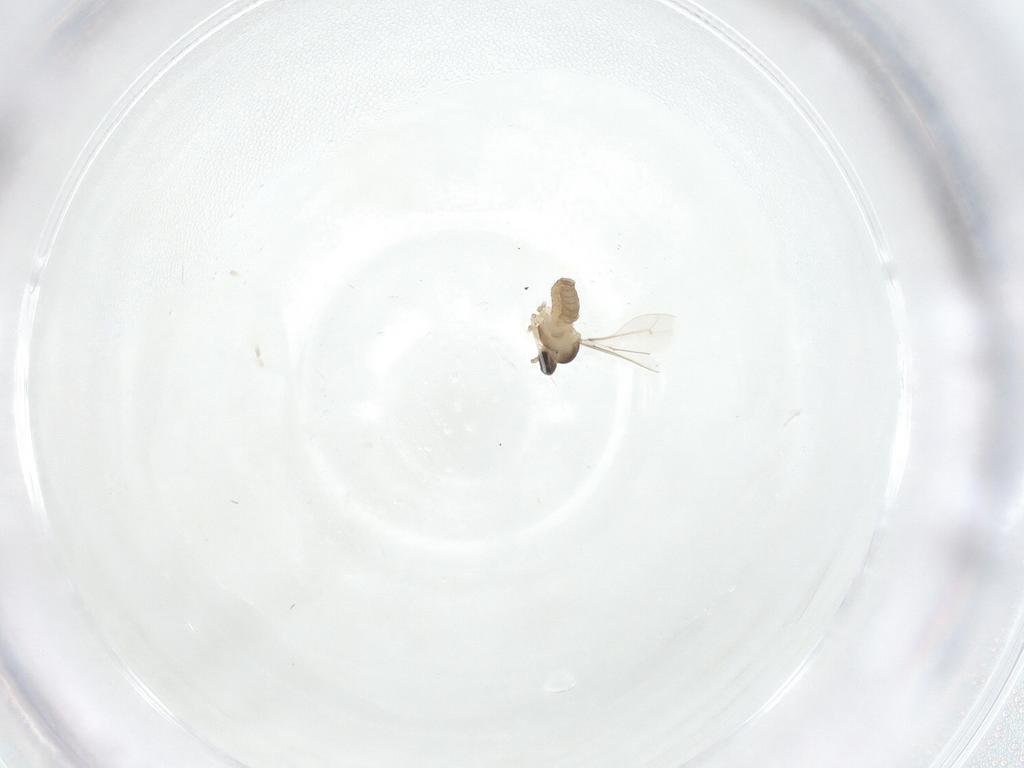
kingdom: Animalia
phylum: Arthropoda
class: Insecta
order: Diptera
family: Cecidomyiidae
